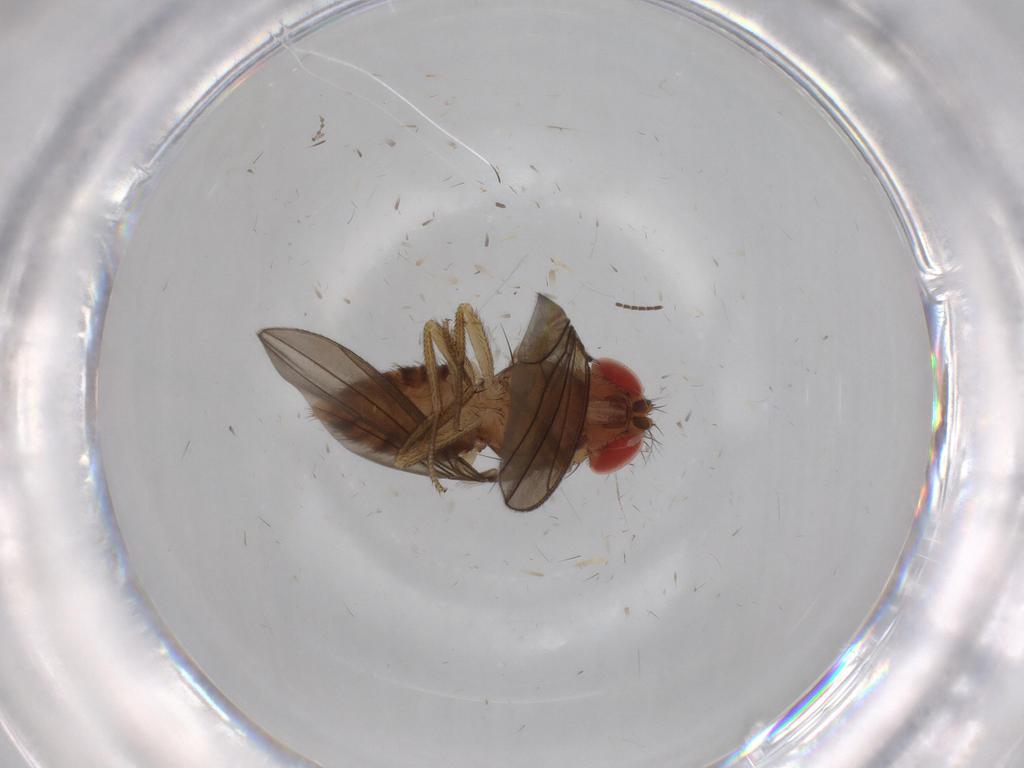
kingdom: Animalia
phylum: Arthropoda
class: Insecta
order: Diptera
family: Drosophilidae
